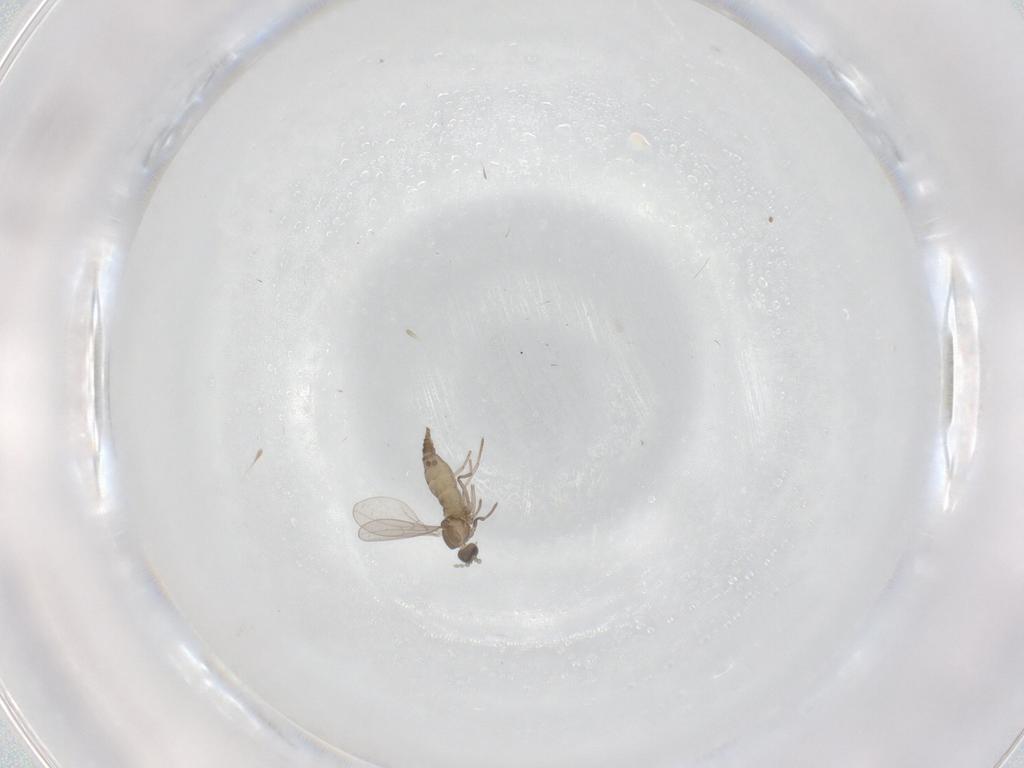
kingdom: Animalia
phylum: Arthropoda
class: Insecta
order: Diptera
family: Cecidomyiidae
